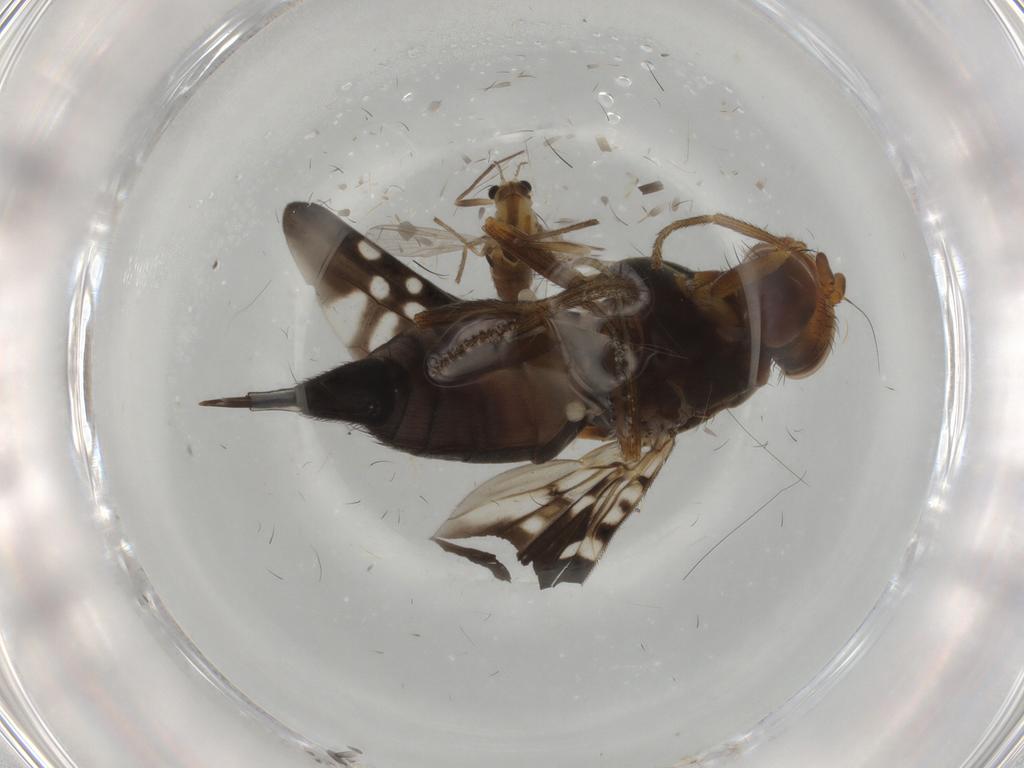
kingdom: Animalia
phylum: Arthropoda
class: Insecta
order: Diptera
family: Ulidiidae
